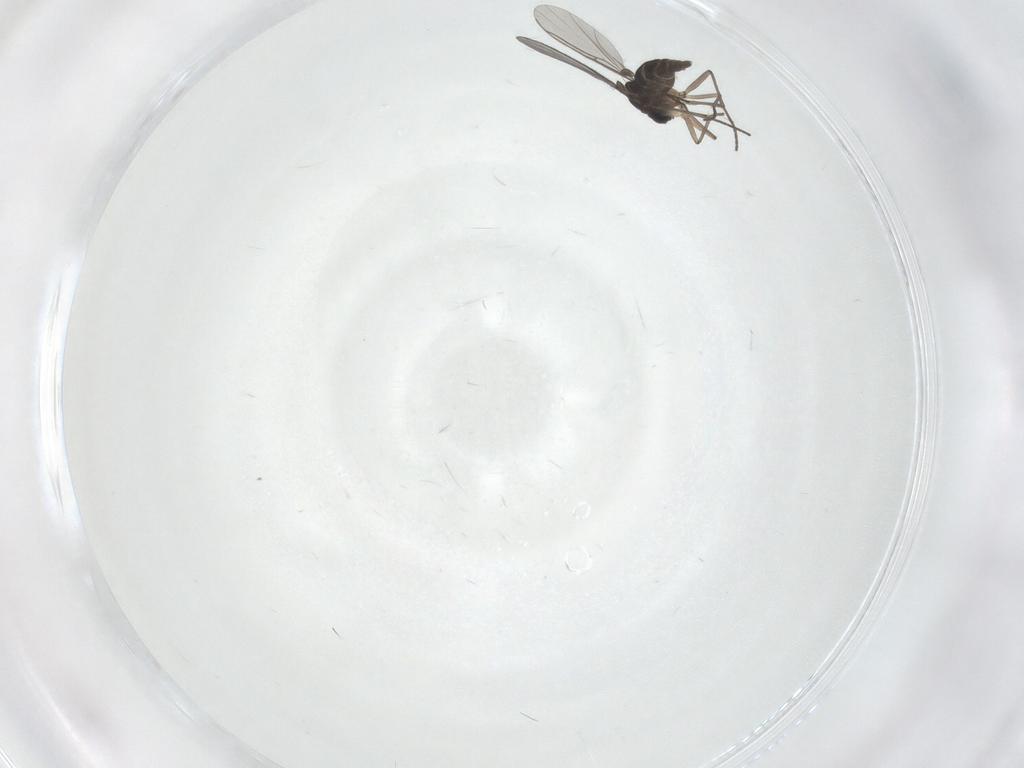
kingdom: Animalia
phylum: Arthropoda
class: Insecta
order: Diptera
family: Sciaridae
